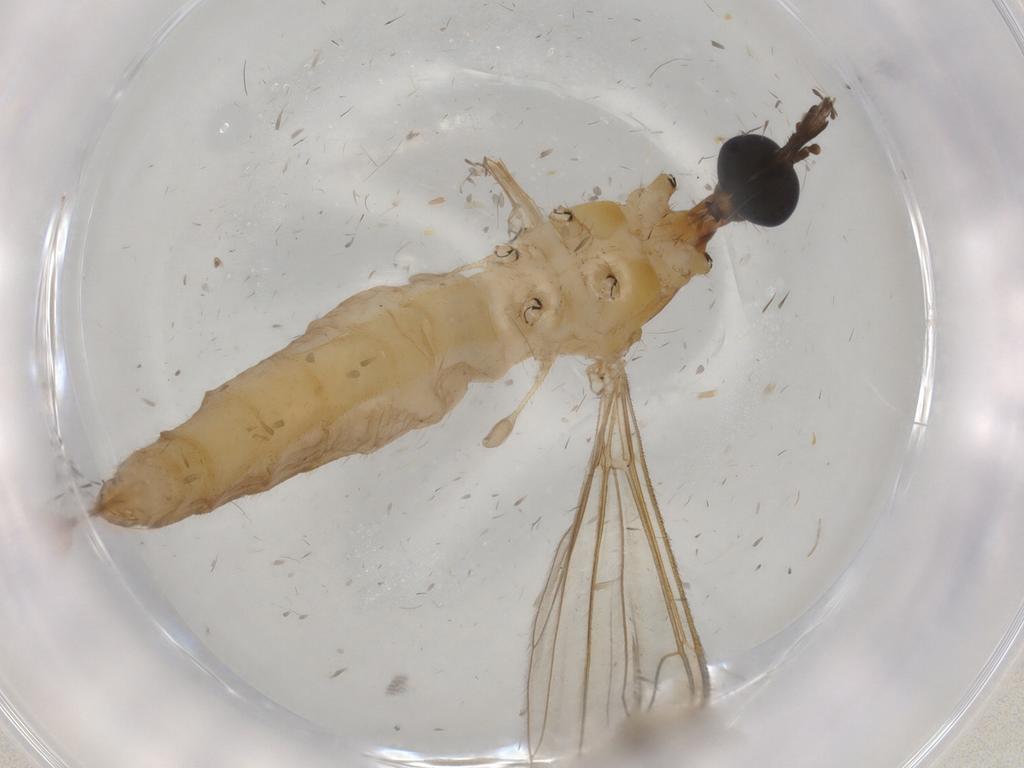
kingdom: Animalia
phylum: Arthropoda
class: Insecta
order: Diptera
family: Ceratopogonidae
